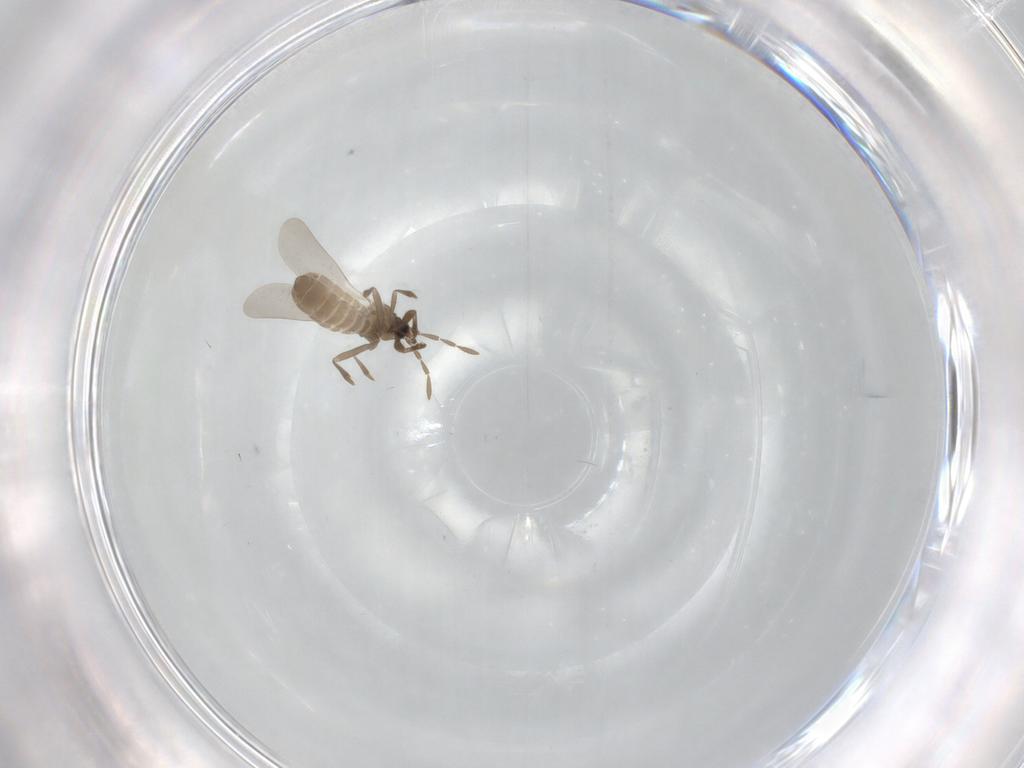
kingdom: Animalia
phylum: Arthropoda
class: Insecta
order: Hemiptera
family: Enicocephalidae
